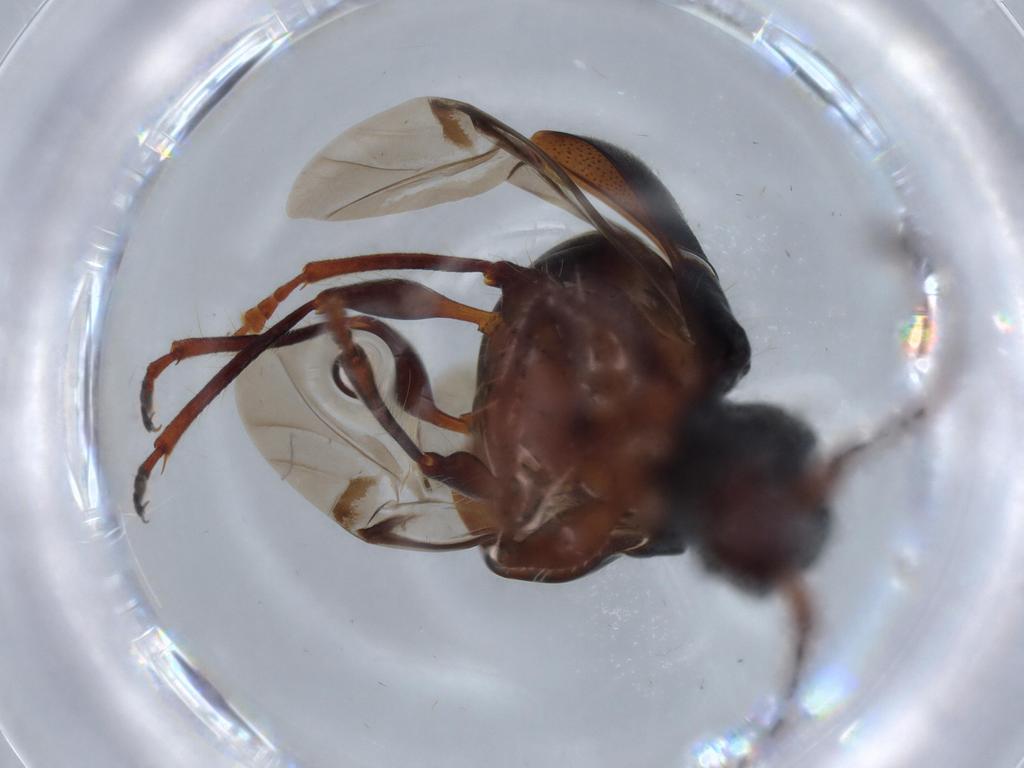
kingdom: Animalia
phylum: Arthropoda
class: Insecta
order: Coleoptera
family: Cerambycidae
